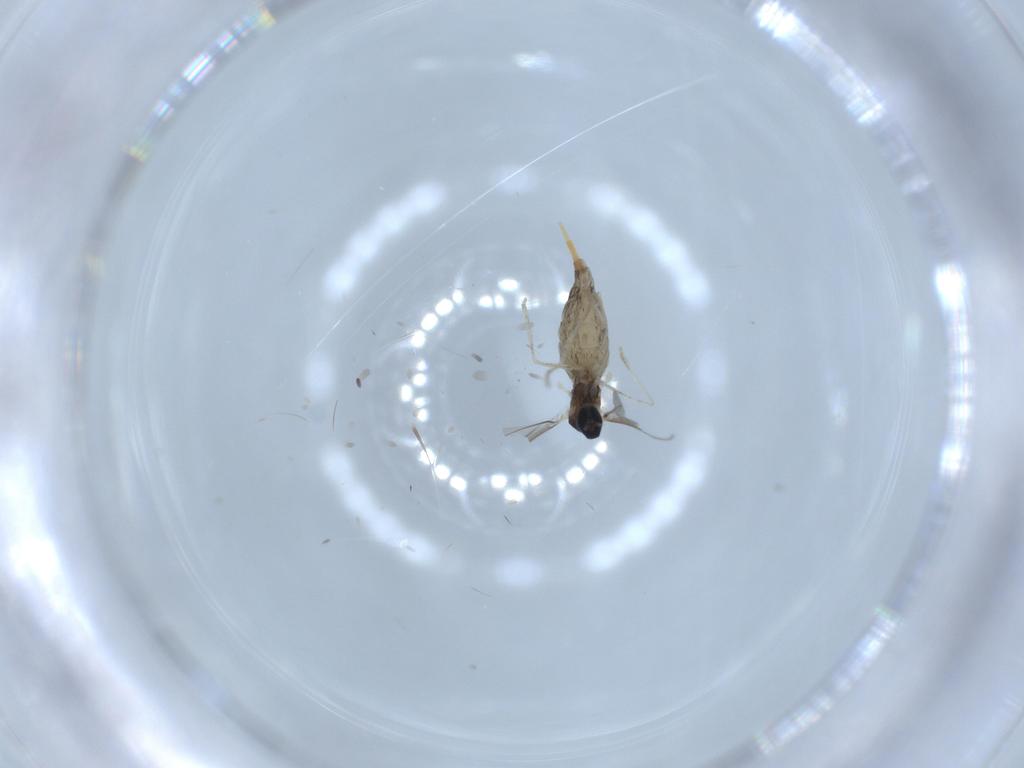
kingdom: Animalia
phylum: Arthropoda
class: Insecta
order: Diptera
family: Cecidomyiidae
